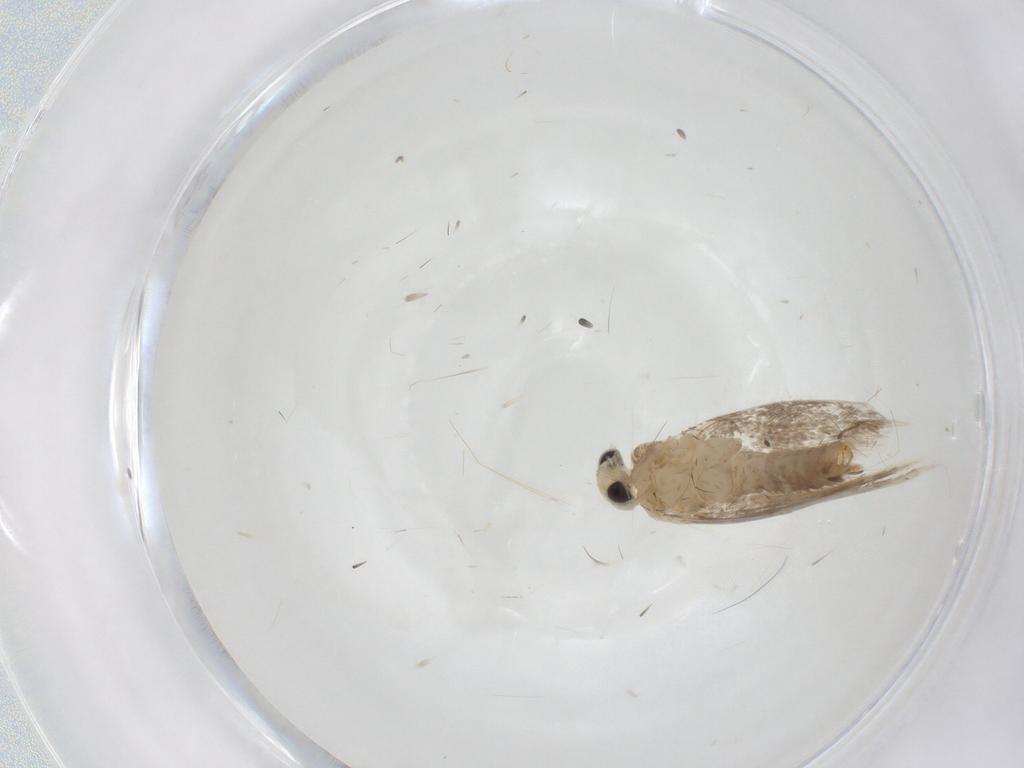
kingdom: Animalia
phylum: Arthropoda
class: Insecta
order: Lepidoptera
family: Gracillariidae
